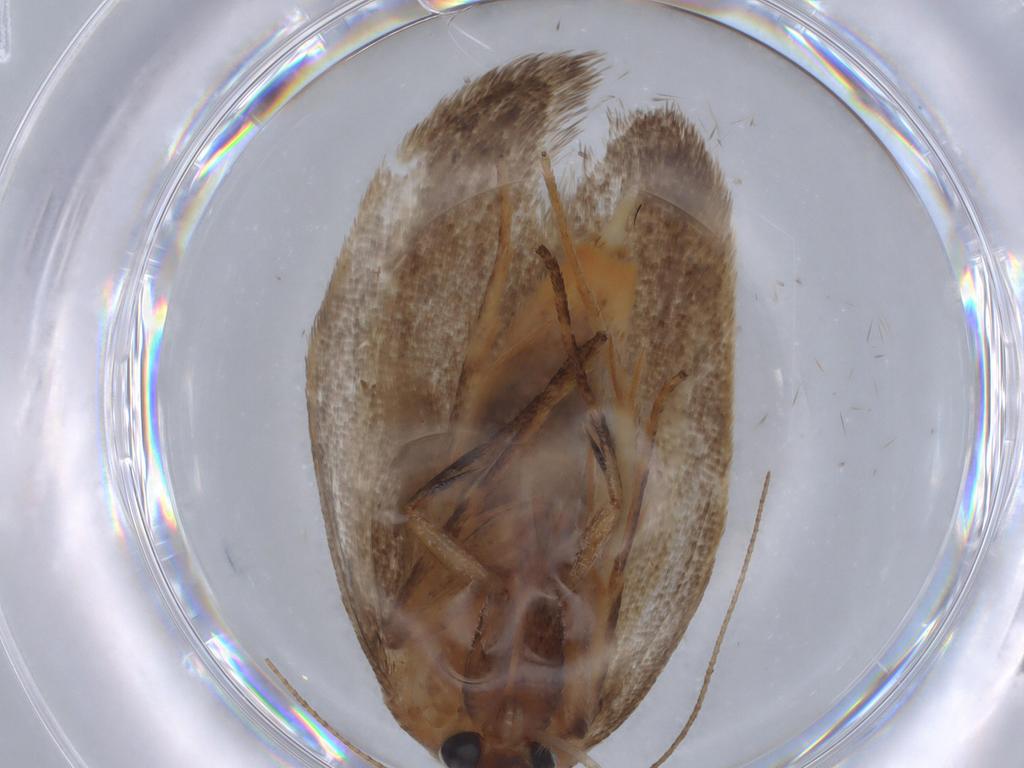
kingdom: Animalia
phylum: Arthropoda
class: Insecta
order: Lepidoptera
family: Oecophoridae
